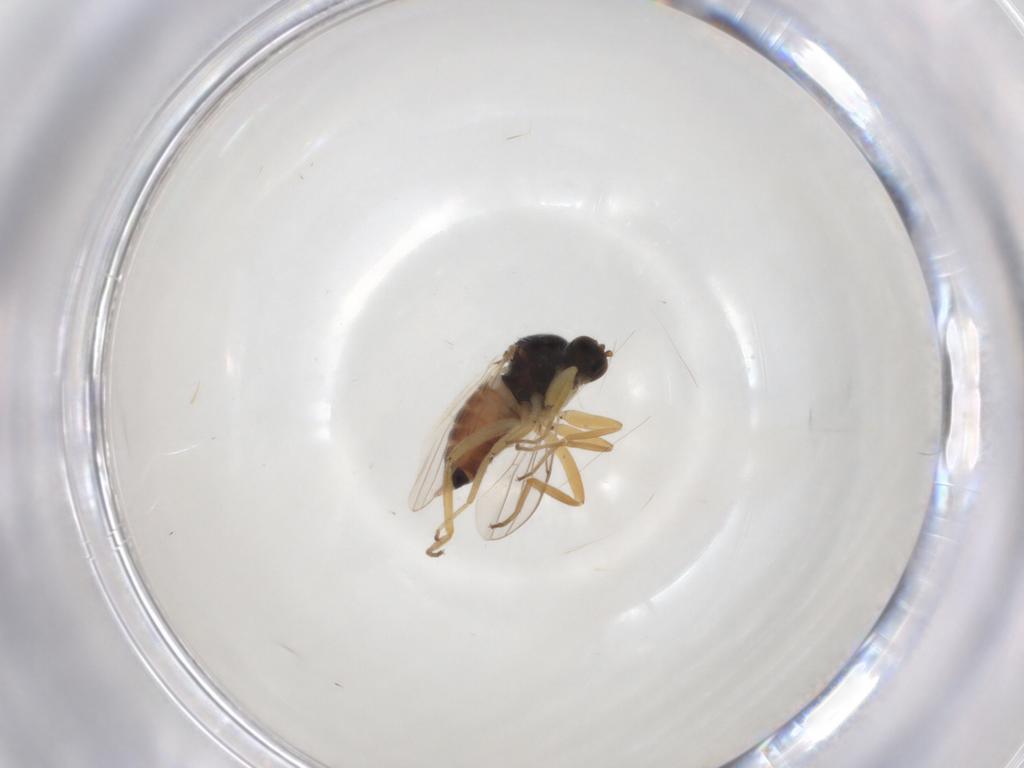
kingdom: Animalia
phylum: Arthropoda
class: Insecta
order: Diptera
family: Hybotidae
